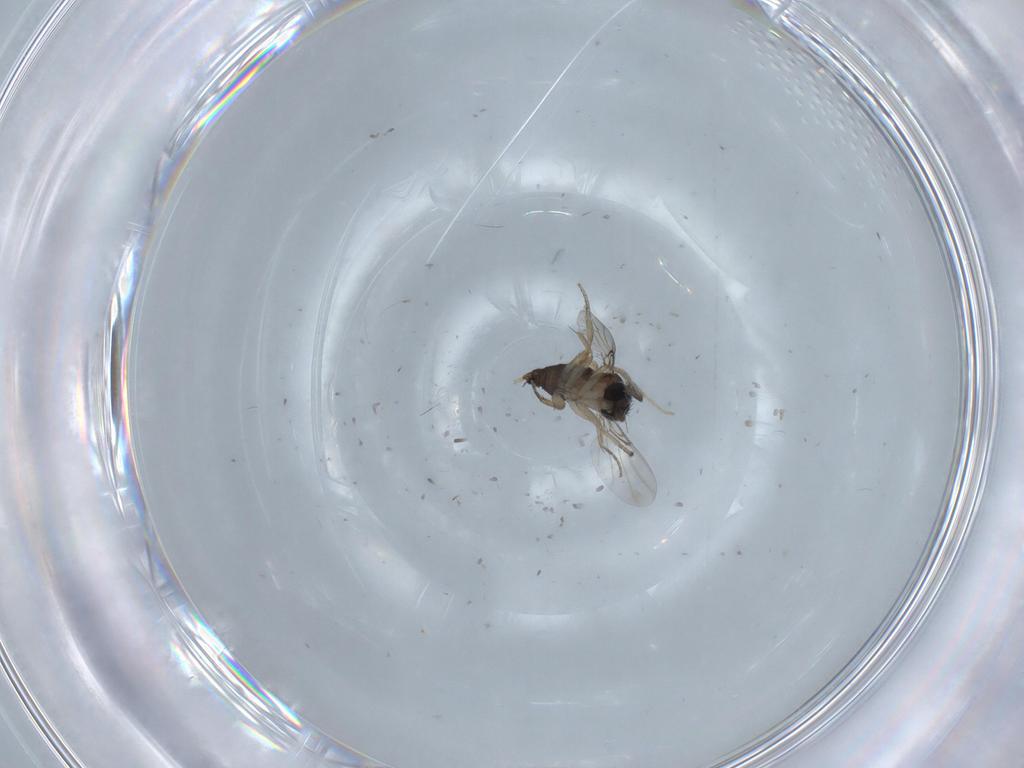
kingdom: Animalia
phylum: Arthropoda
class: Insecta
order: Diptera
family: Phoridae
